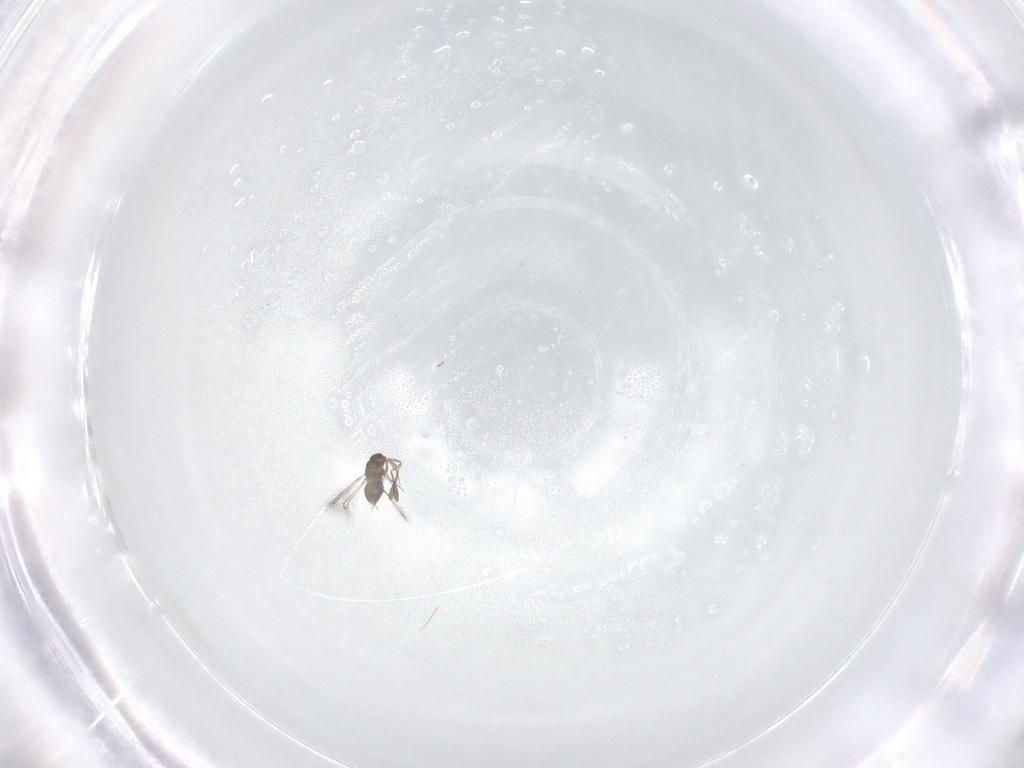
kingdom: Animalia
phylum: Arthropoda
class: Insecta
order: Hymenoptera
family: Mymaridae
